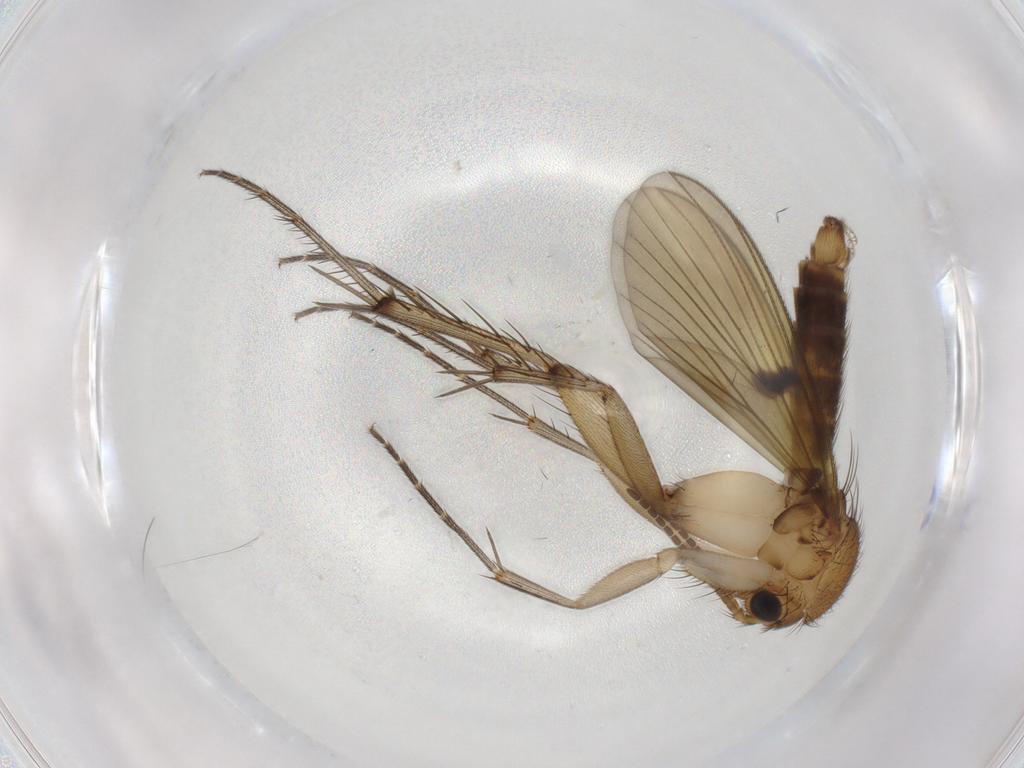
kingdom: Animalia
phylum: Arthropoda
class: Insecta
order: Diptera
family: Mycetophilidae
